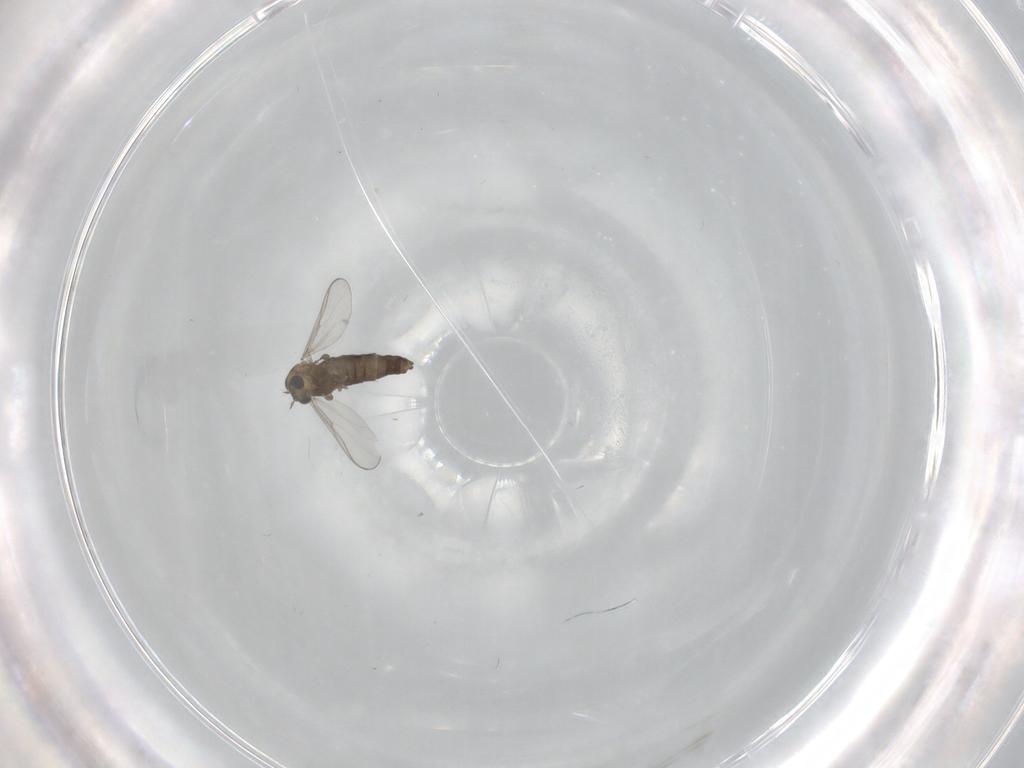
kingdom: Animalia
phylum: Arthropoda
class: Insecta
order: Diptera
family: Chironomidae
